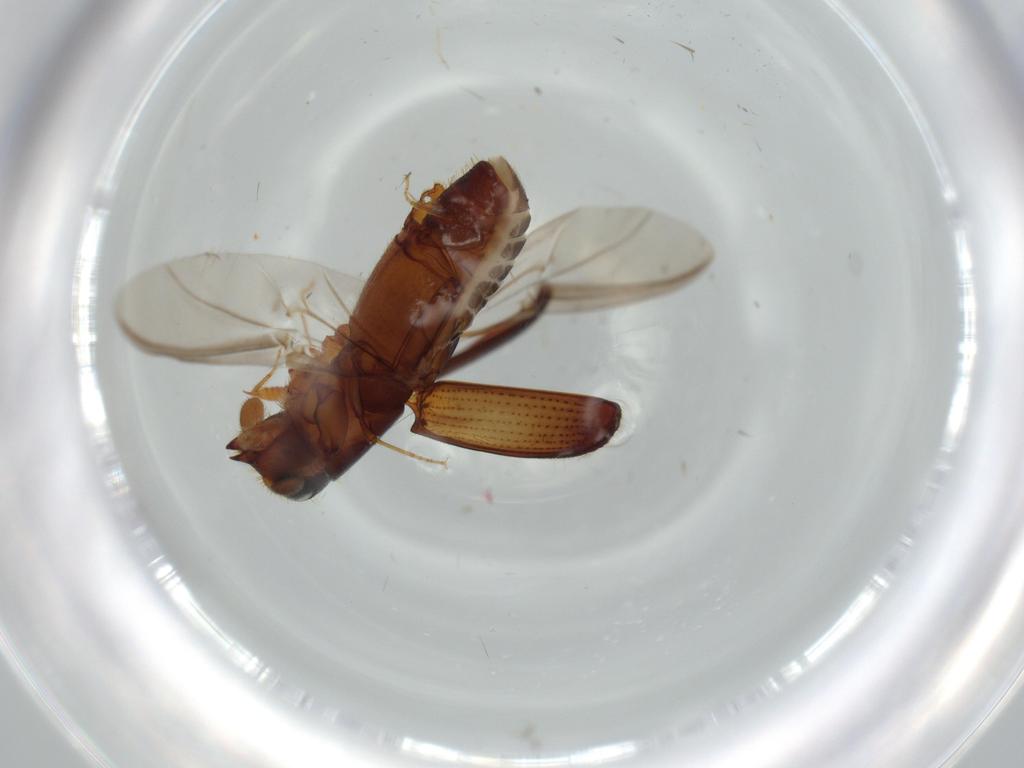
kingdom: Animalia
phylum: Arthropoda
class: Insecta
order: Coleoptera
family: Curculionidae
